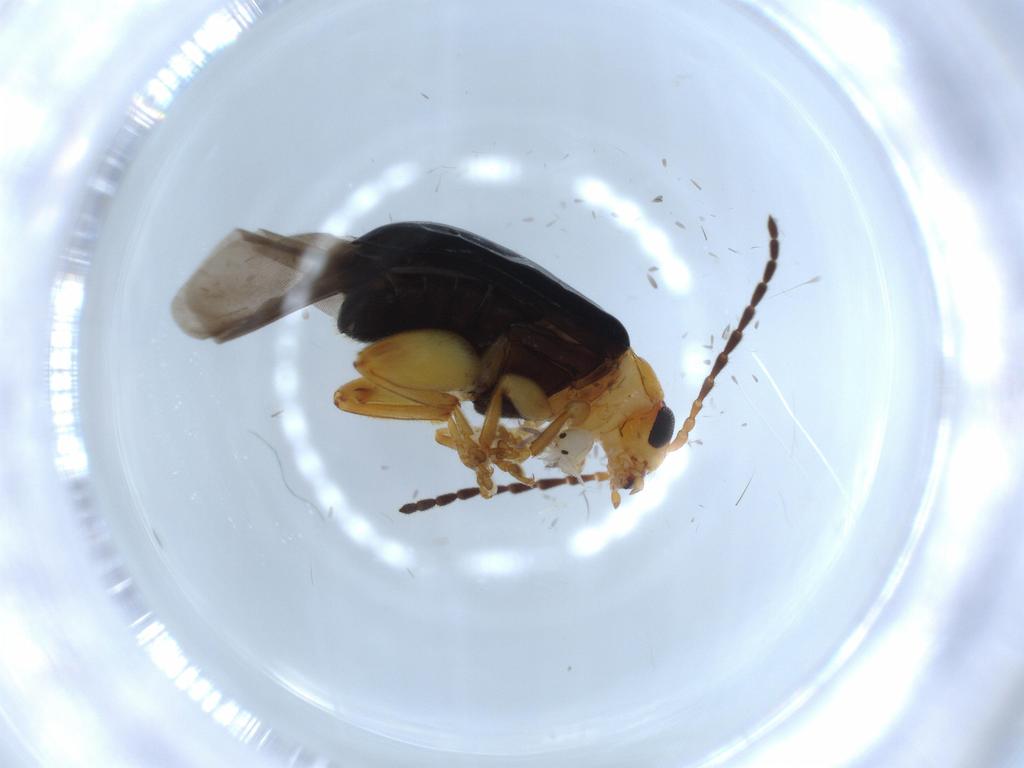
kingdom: Animalia
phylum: Arthropoda
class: Insecta
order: Coleoptera
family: Chrysomelidae
